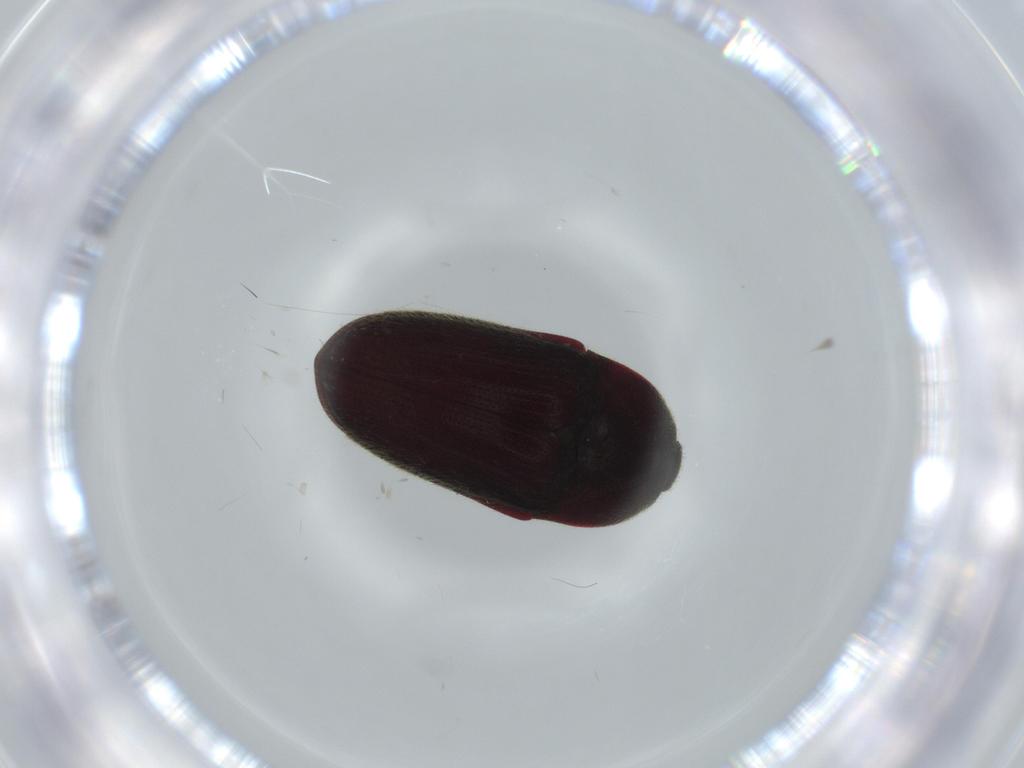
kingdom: Animalia
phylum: Arthropoda
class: Insecta
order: Coleoptera
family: Throscidae
